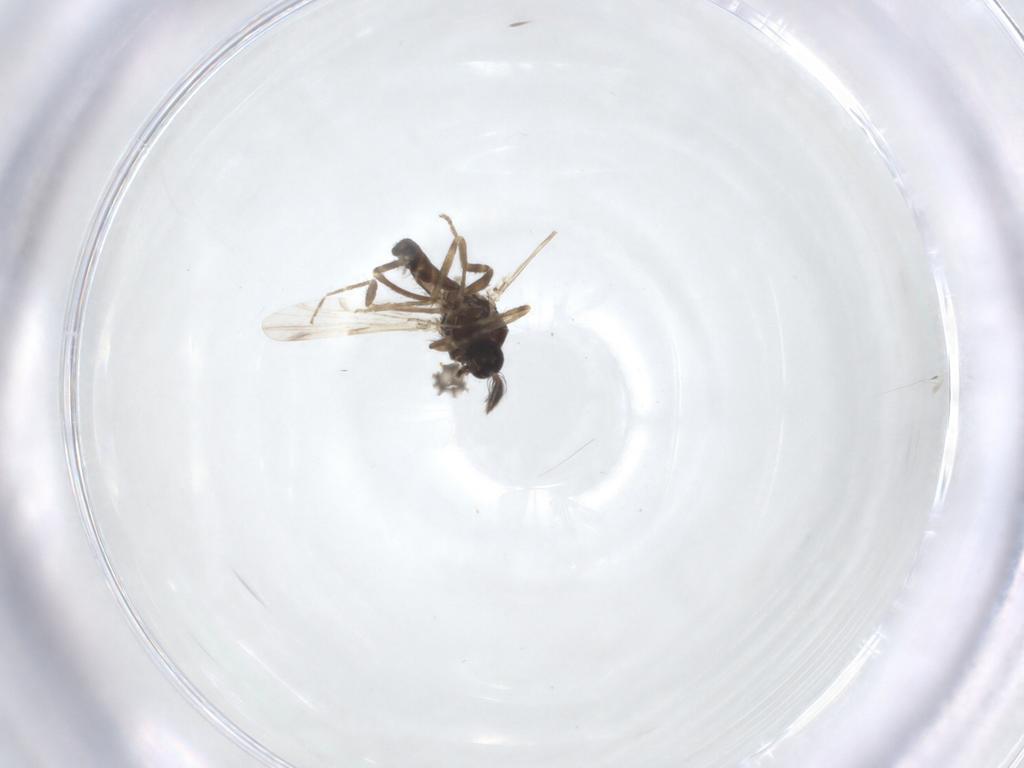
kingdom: Animalia
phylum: Arthropoda
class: Insecta
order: Diptera
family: Ceratopogonidae
